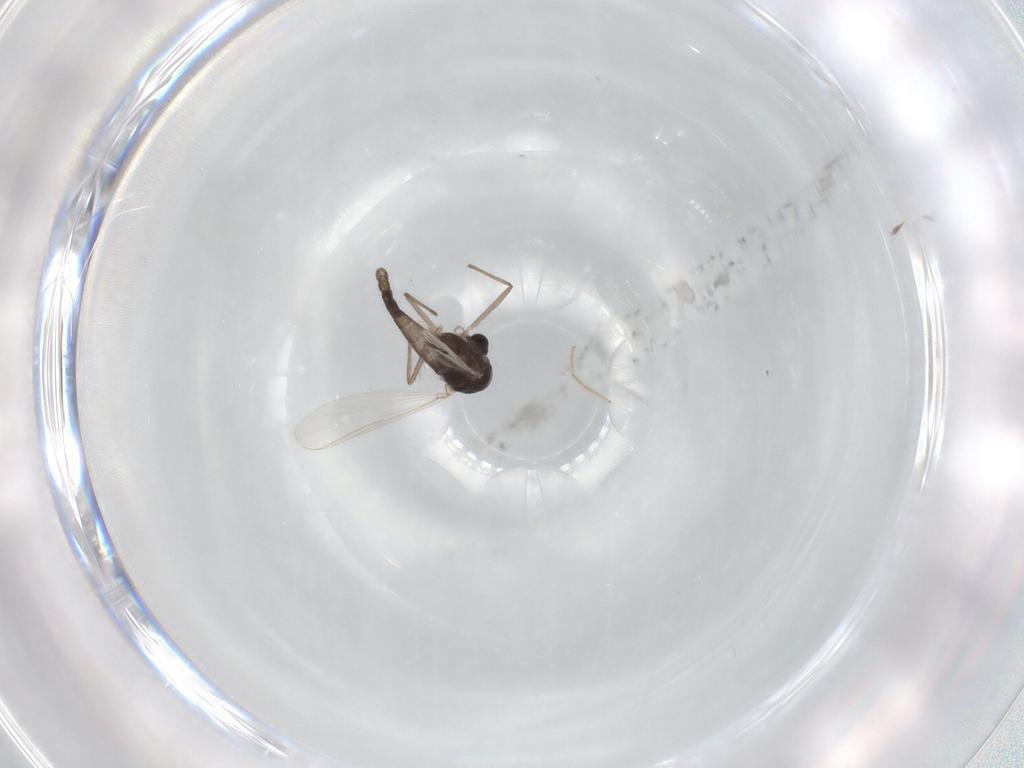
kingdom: Animalia
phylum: Arthropoda
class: Insecta
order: Diptera
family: Chironomidae
